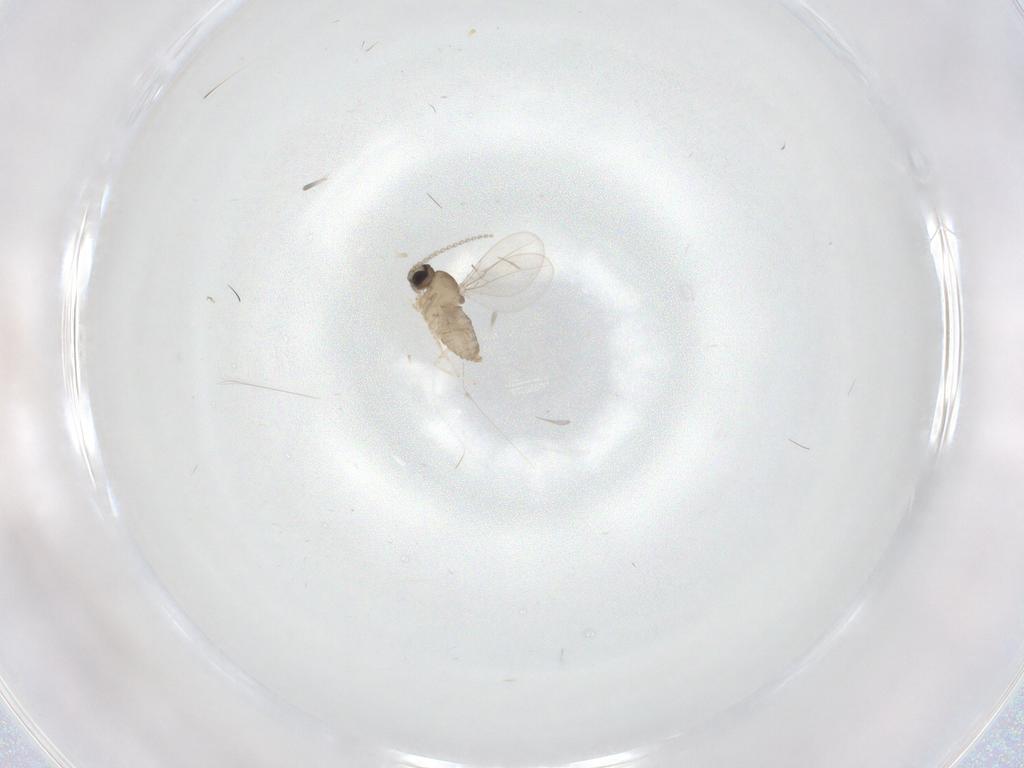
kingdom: Animalia
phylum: Arthropoda
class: Insecta
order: Diptera
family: Cecidomyiidae
